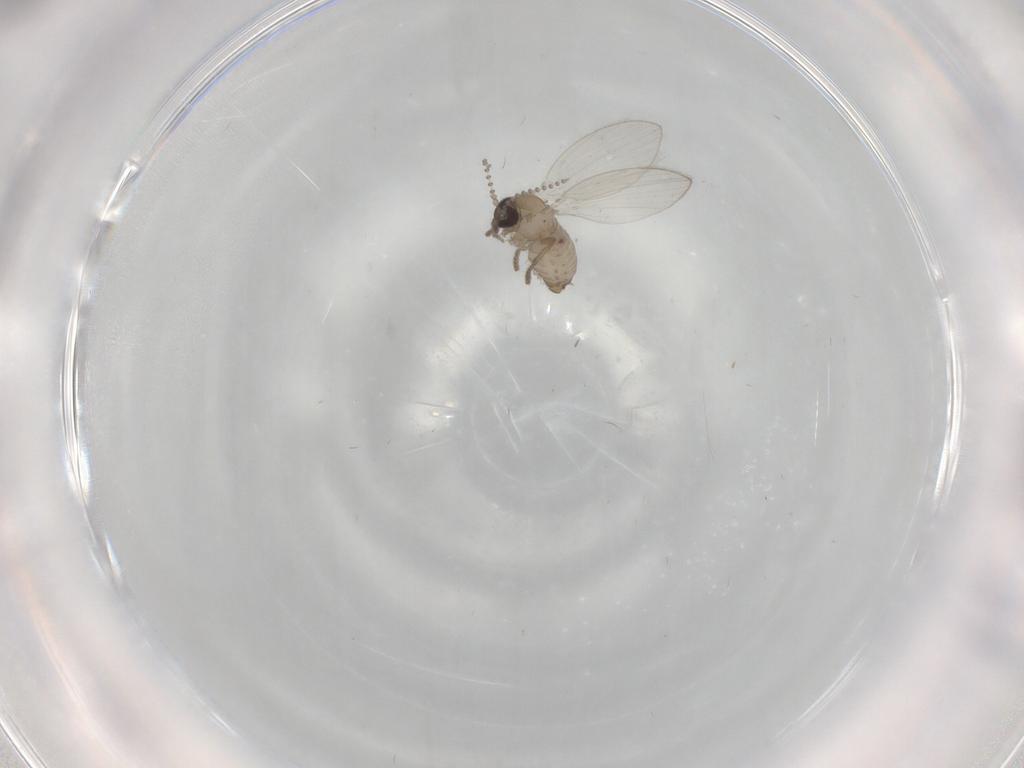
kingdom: Animalia
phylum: Arthropoda
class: Insecta
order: Diptera
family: Psychodidae
